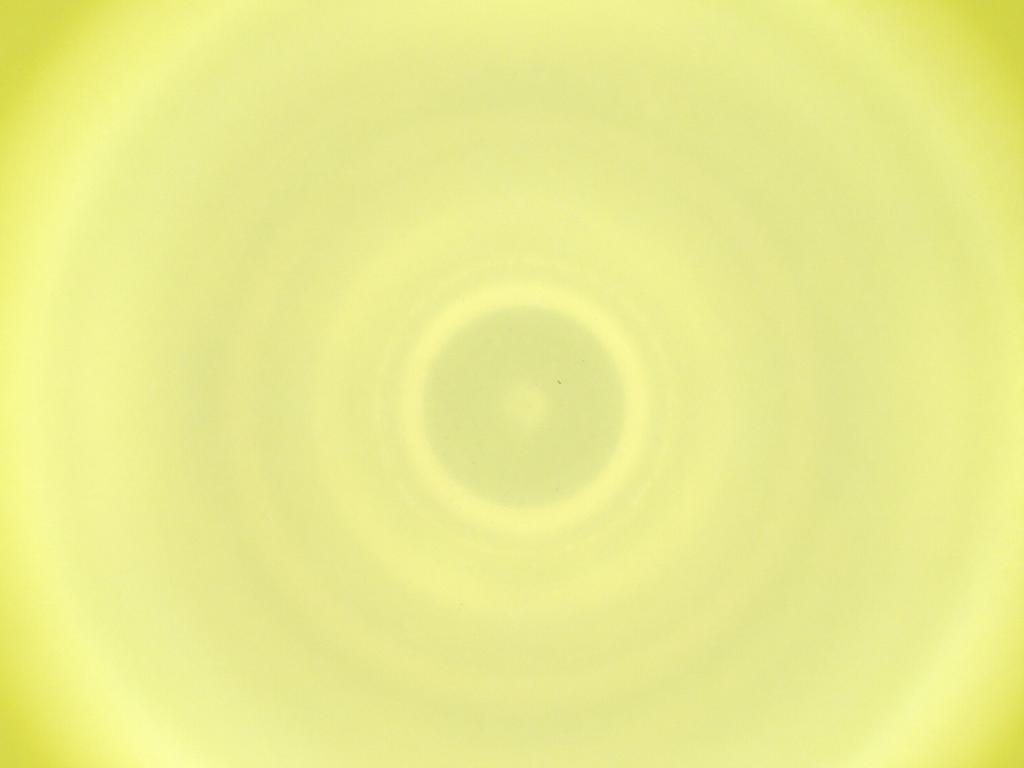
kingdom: Animalia
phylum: Arthropoda
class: Insecta
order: Diptera
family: Cecidomyiidae
